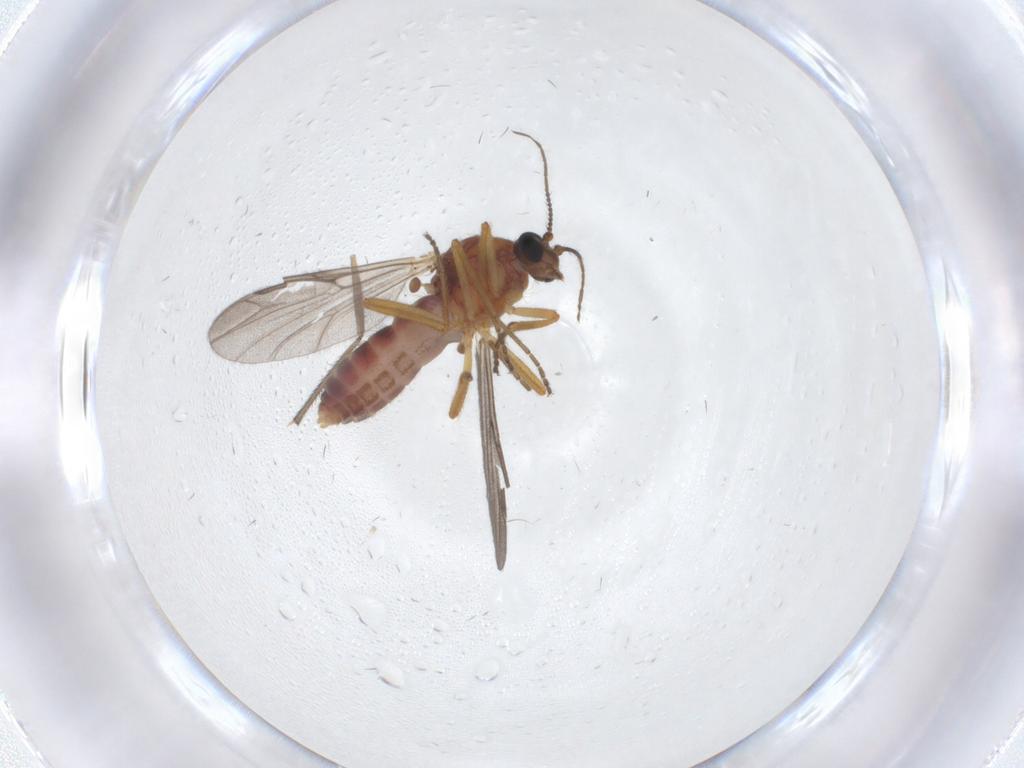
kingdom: Animalia
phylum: Arthropoda
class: Insecta
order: Diptera
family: Ceratopogonidae
